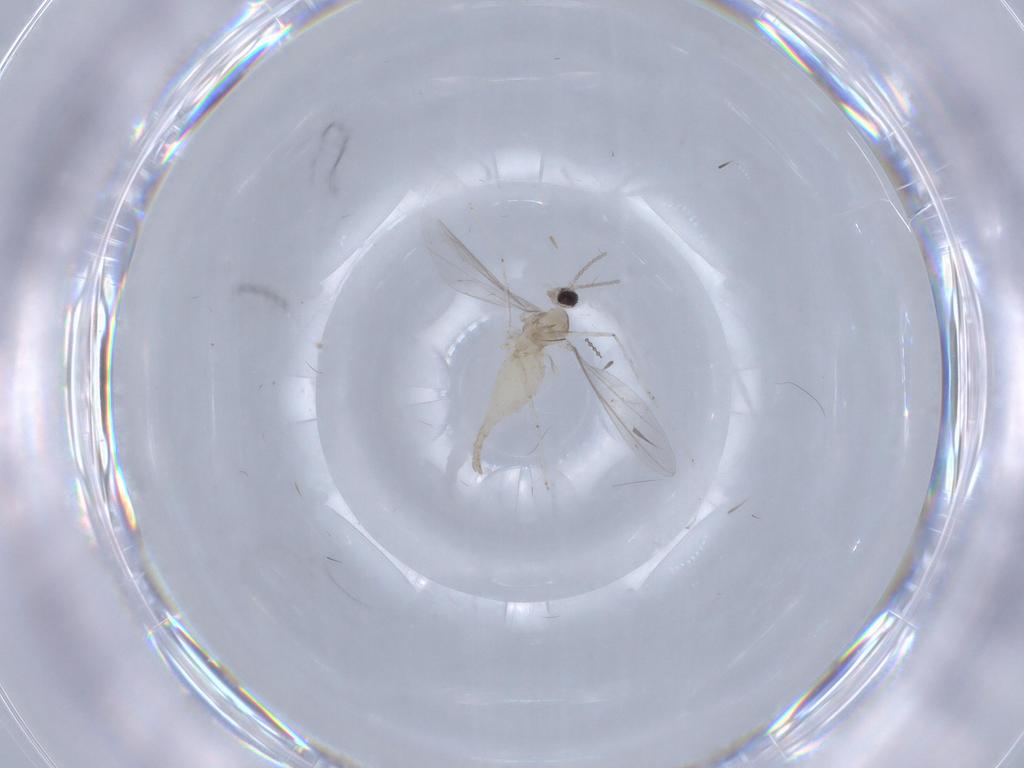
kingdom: Animalia
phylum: Arthropoda
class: Insecta
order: Diptera
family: Cecidomyiidae
